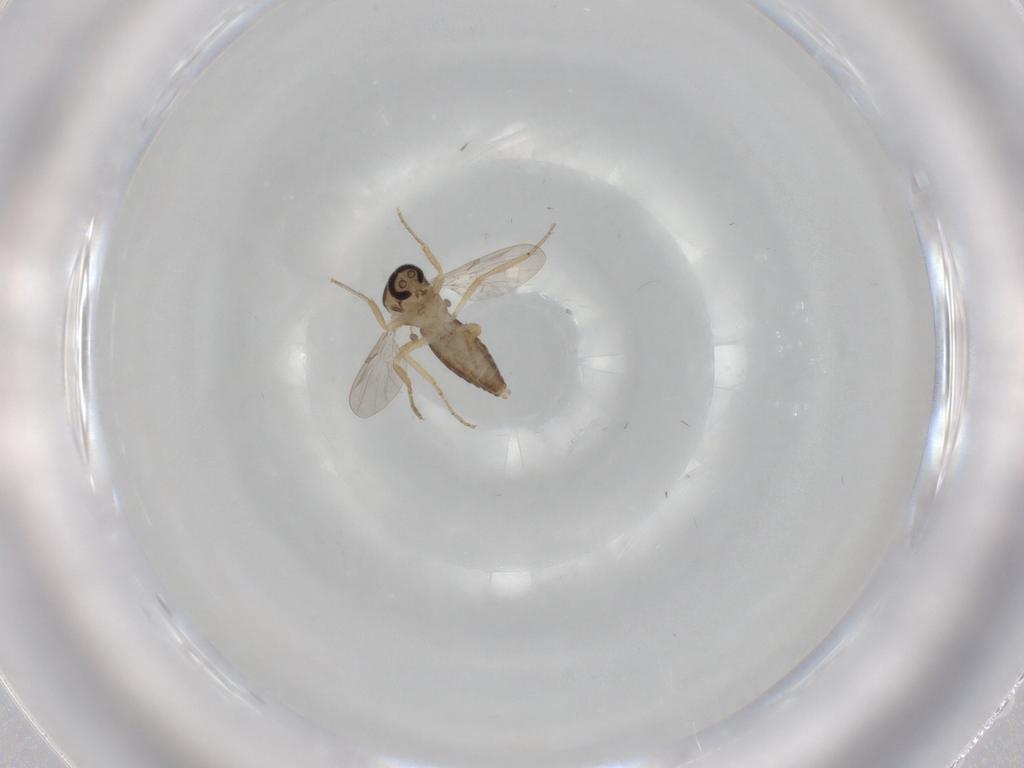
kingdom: Animalia
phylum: Arthropoda
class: Insecta
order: Diptera
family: Ceratopogonidae
